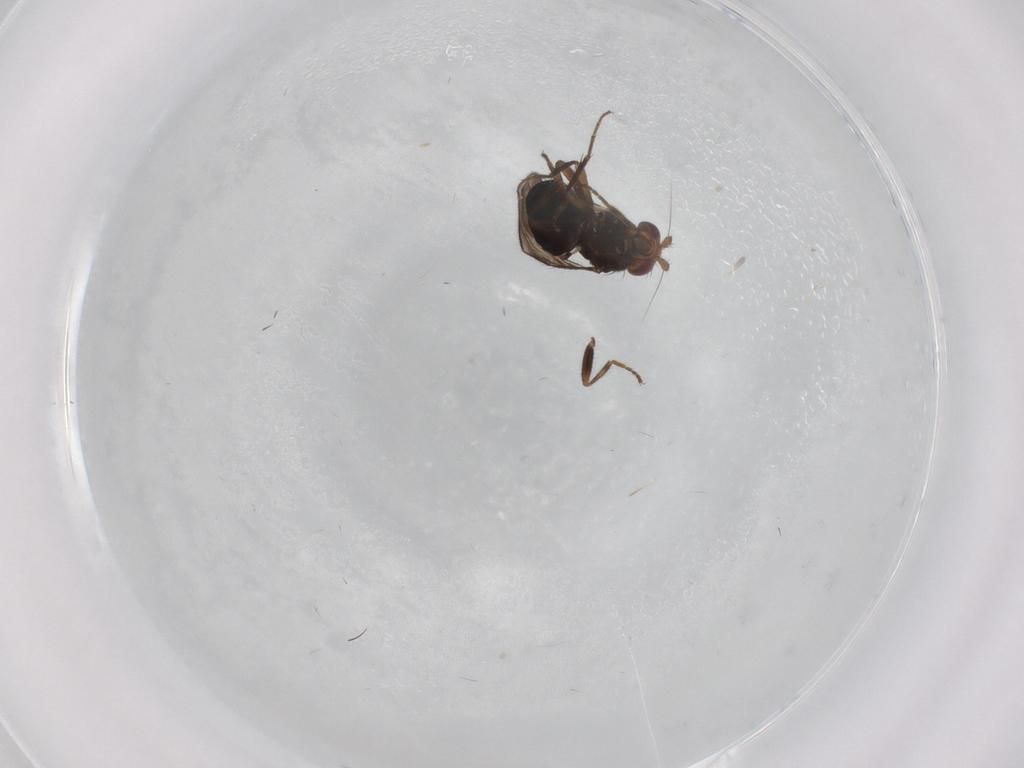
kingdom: Animalia
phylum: Arthropoda
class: Insecta
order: Diptera
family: Sphaeroceridae
